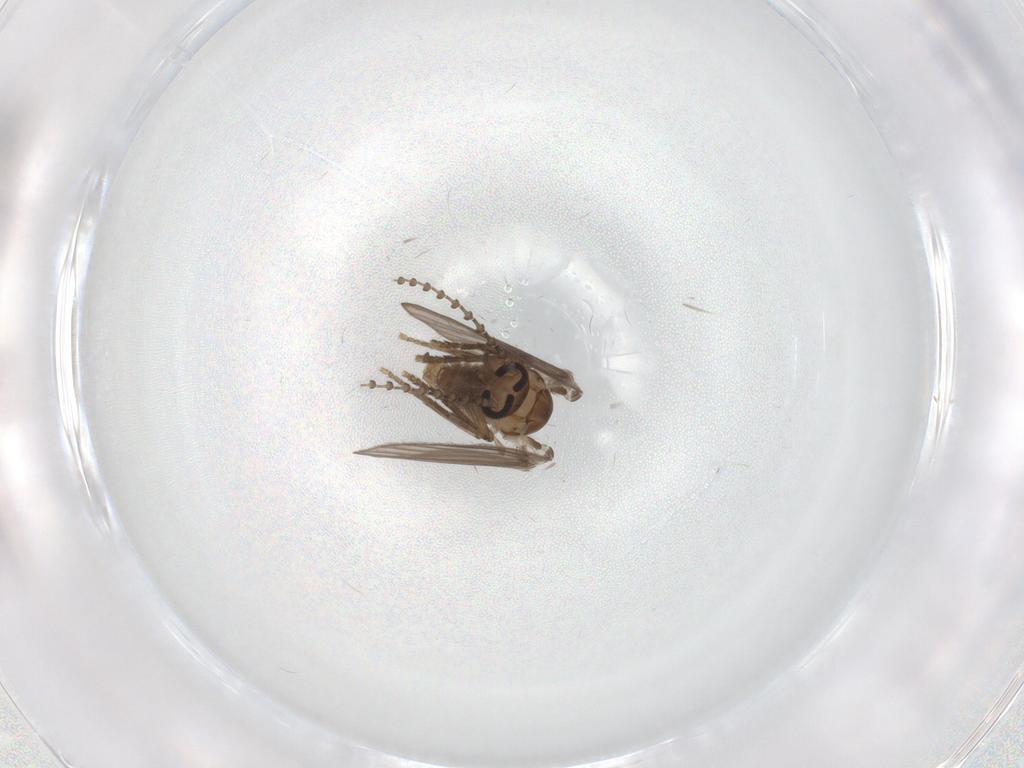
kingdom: Animalia
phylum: Arthropoda
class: Insecta
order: Diptera
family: Psychodidae
